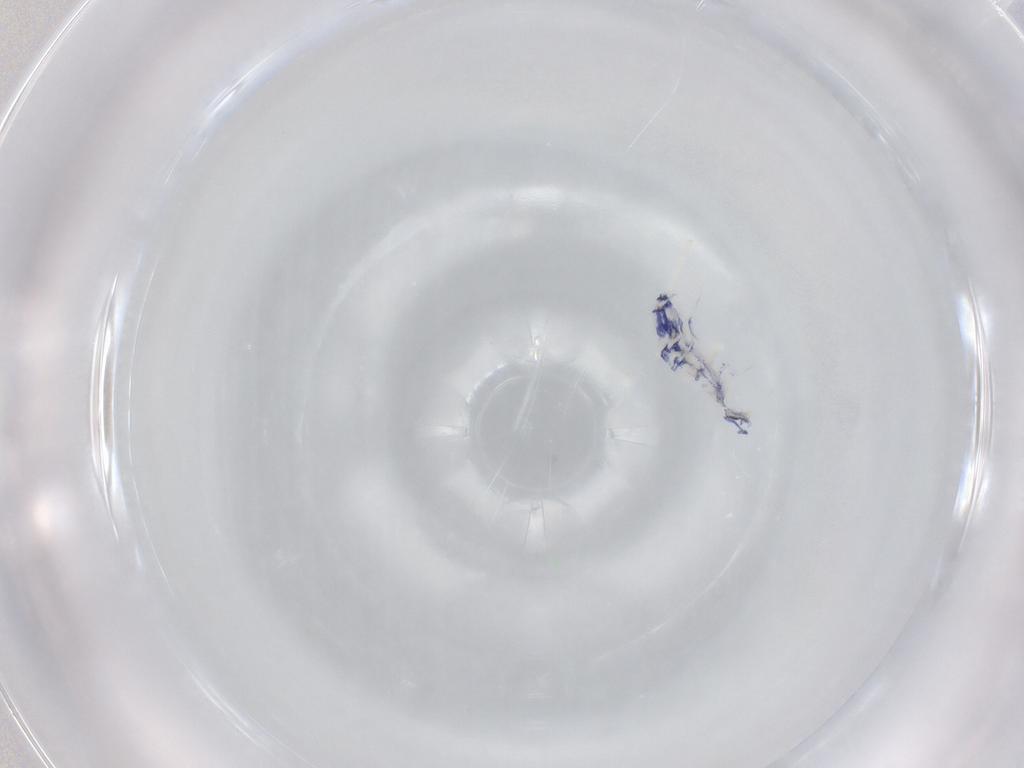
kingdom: Animalia
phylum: Arthropoda
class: Collembola
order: Entomobryomorpha
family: Entomobryidae
